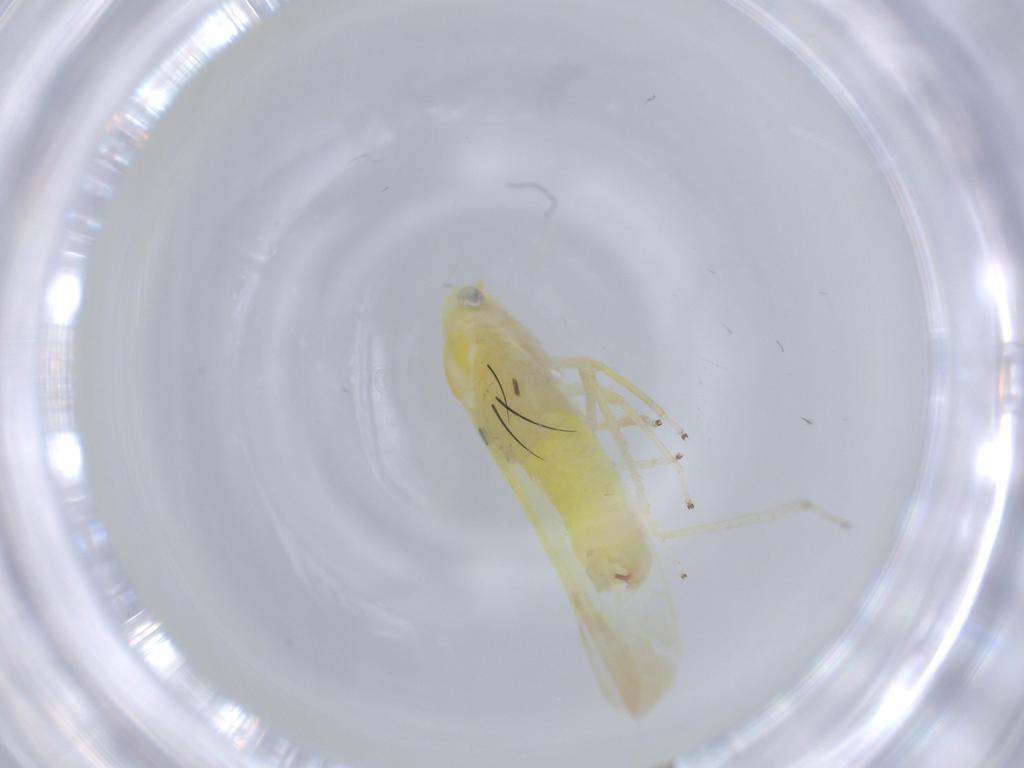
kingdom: Animalia
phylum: Arthropoda
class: Insecta
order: Hemiptera
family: Cicadellidae
